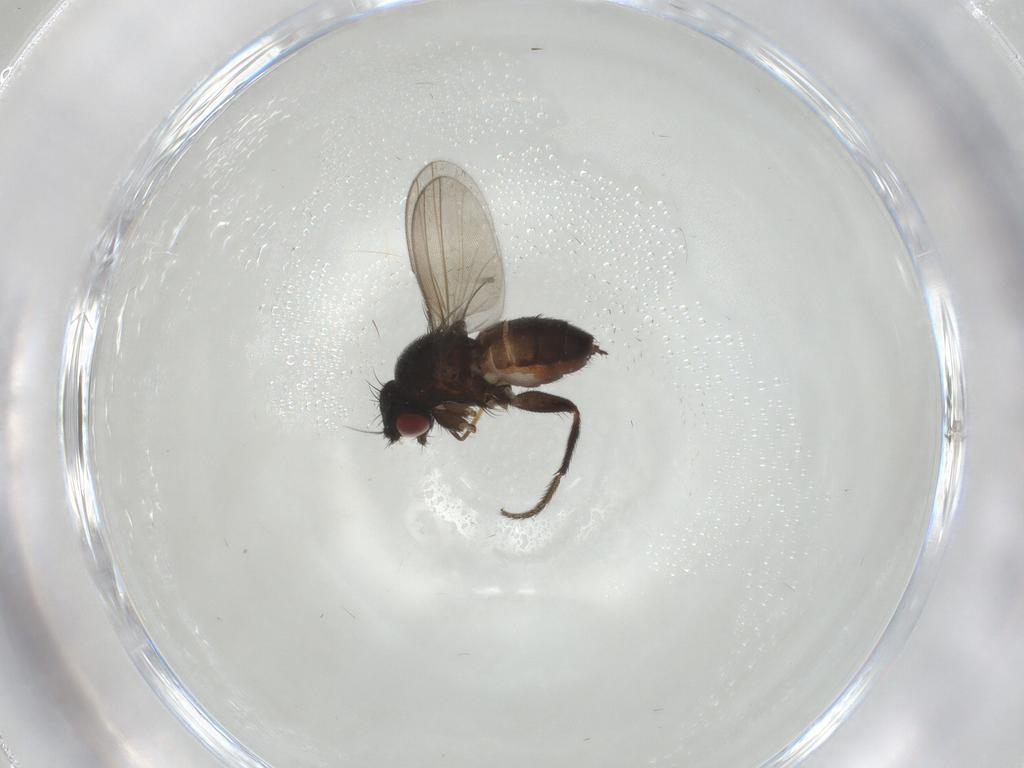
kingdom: Animalia
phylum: Arthropoda
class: Insecta
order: Diptera
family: Milichiidae
